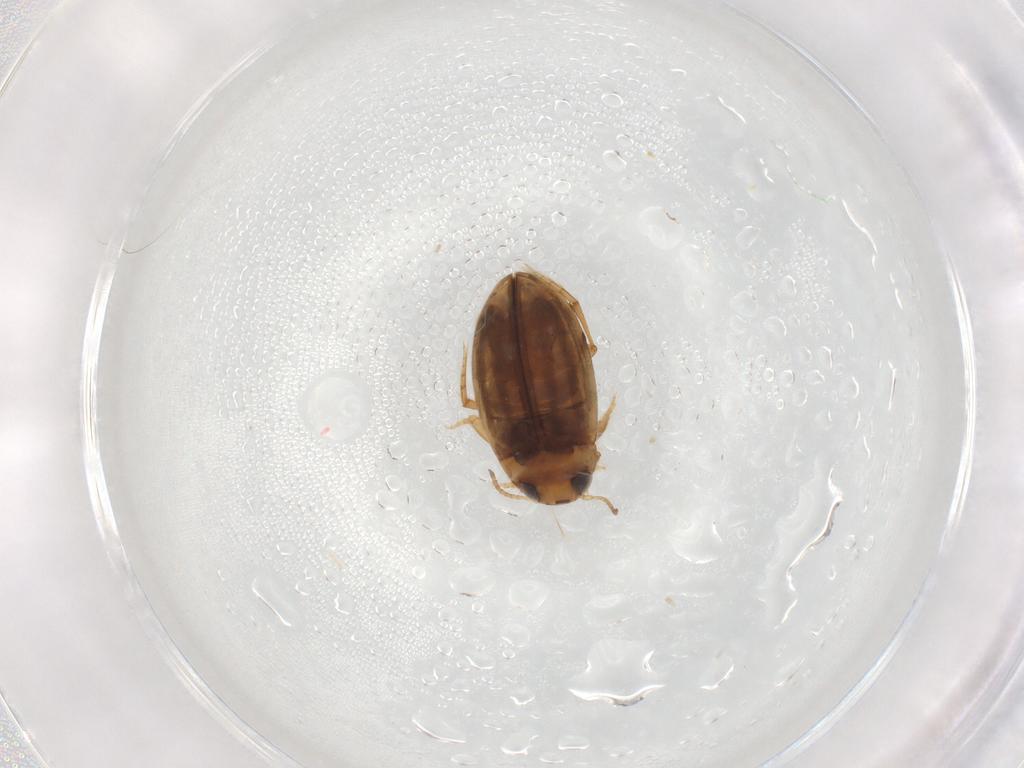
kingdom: Animalia
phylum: Arthropoda
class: Insecta
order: Coleoptera
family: Dytiscidae
